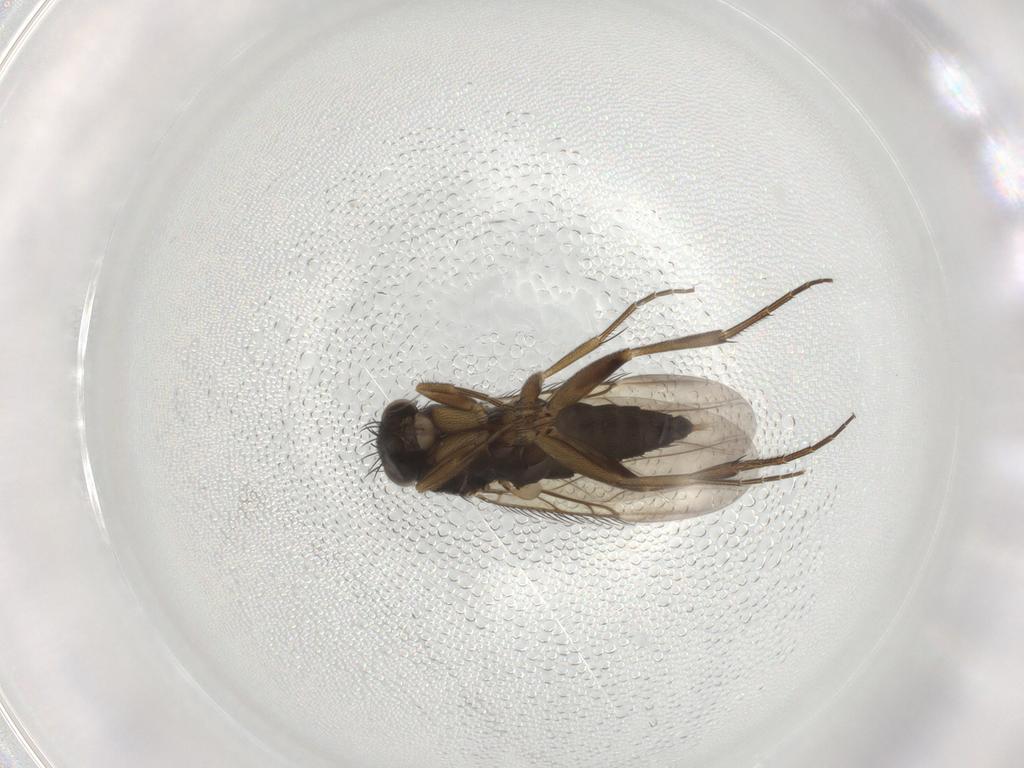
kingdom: Animalia
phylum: Arthropoda
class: Insecta
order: Diptera
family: Phoridae
